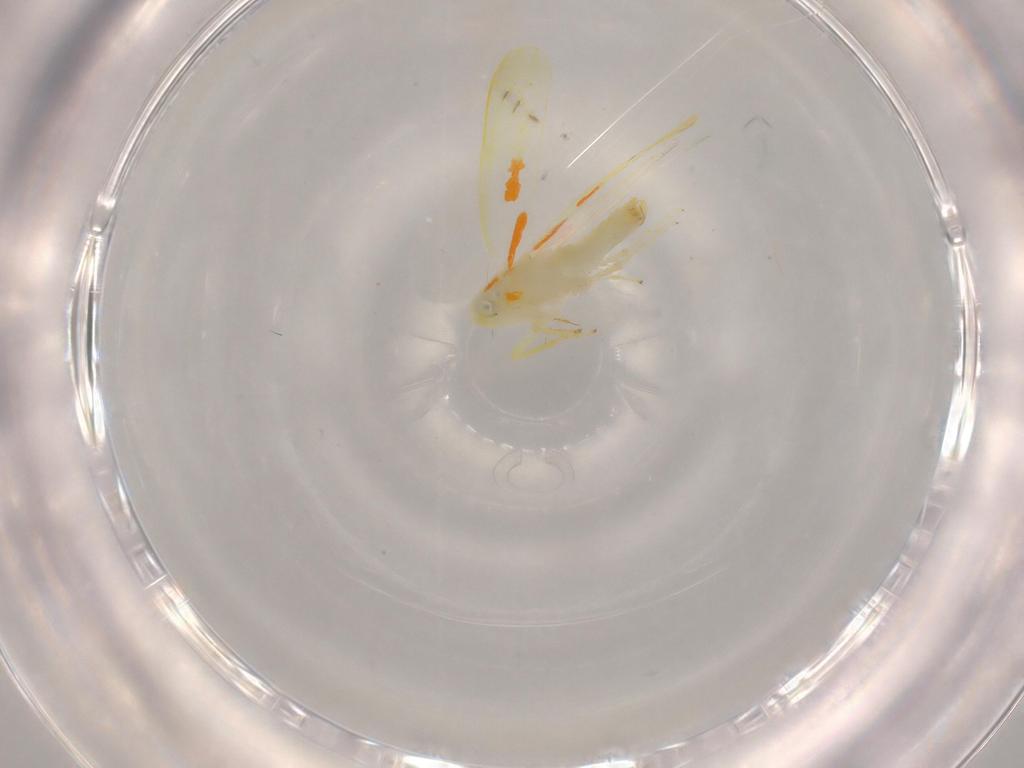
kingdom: Animalia
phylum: Arthropoda
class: Insecta
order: Hemiptera
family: Cicadellidae
